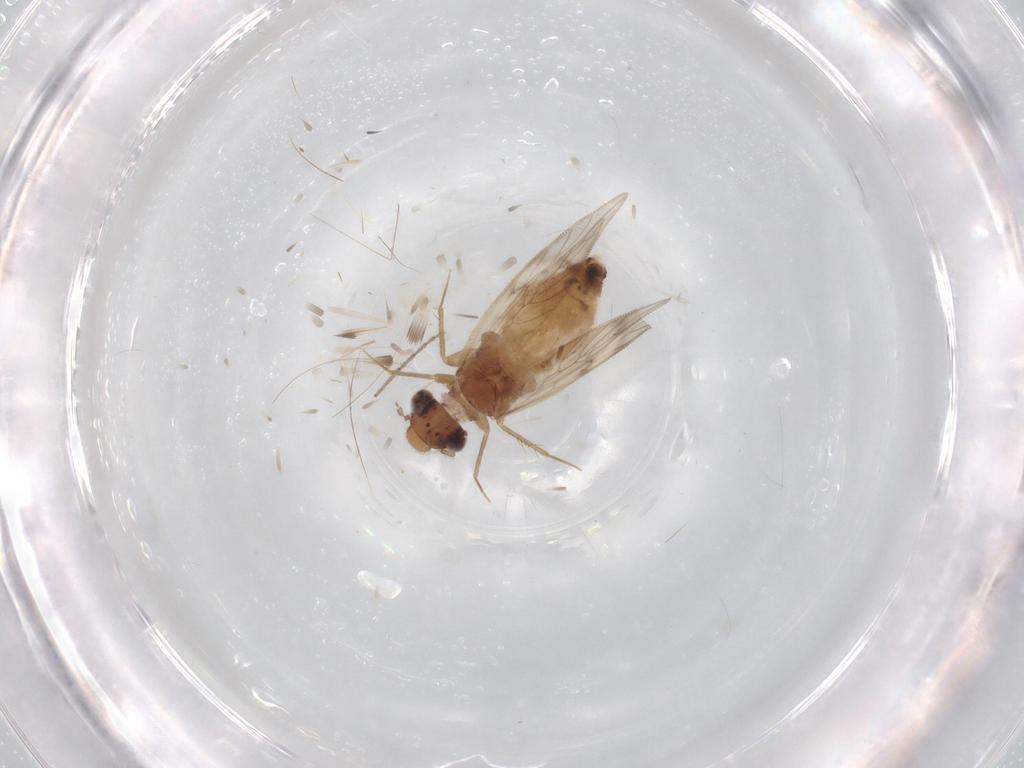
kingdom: Animalia
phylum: Arthropoda
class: Insecta
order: Psocodea
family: Lepidopsocidae
